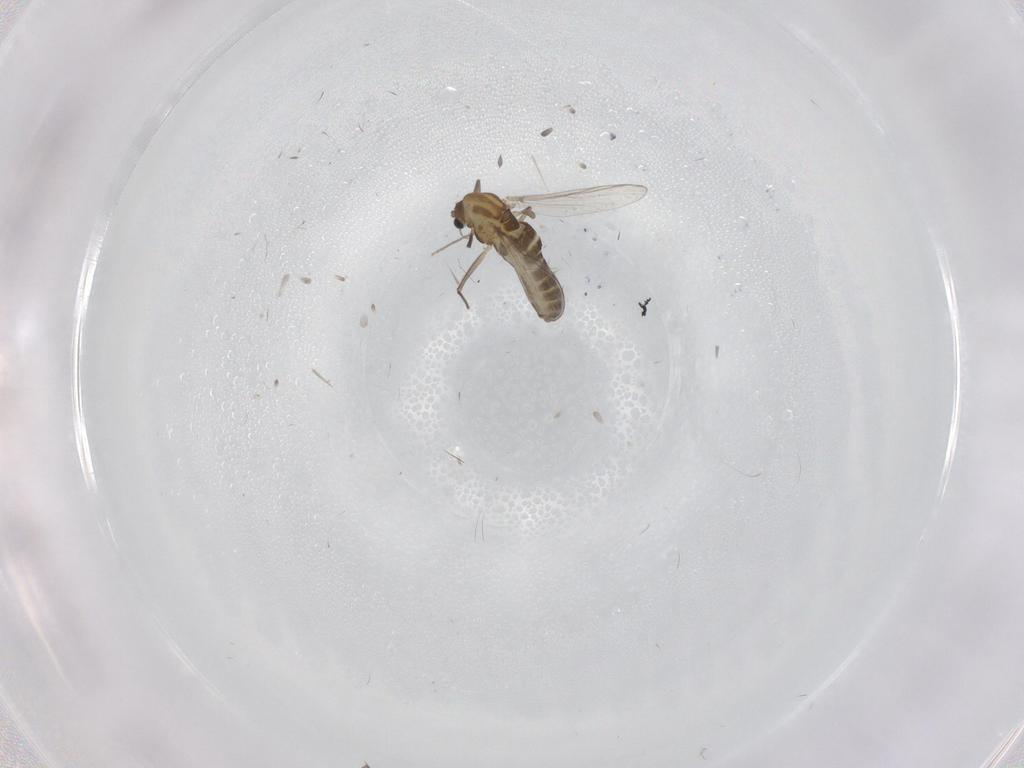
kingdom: Animalia
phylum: Arthropoda
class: Insecta
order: Diptera
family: Chironomidae
